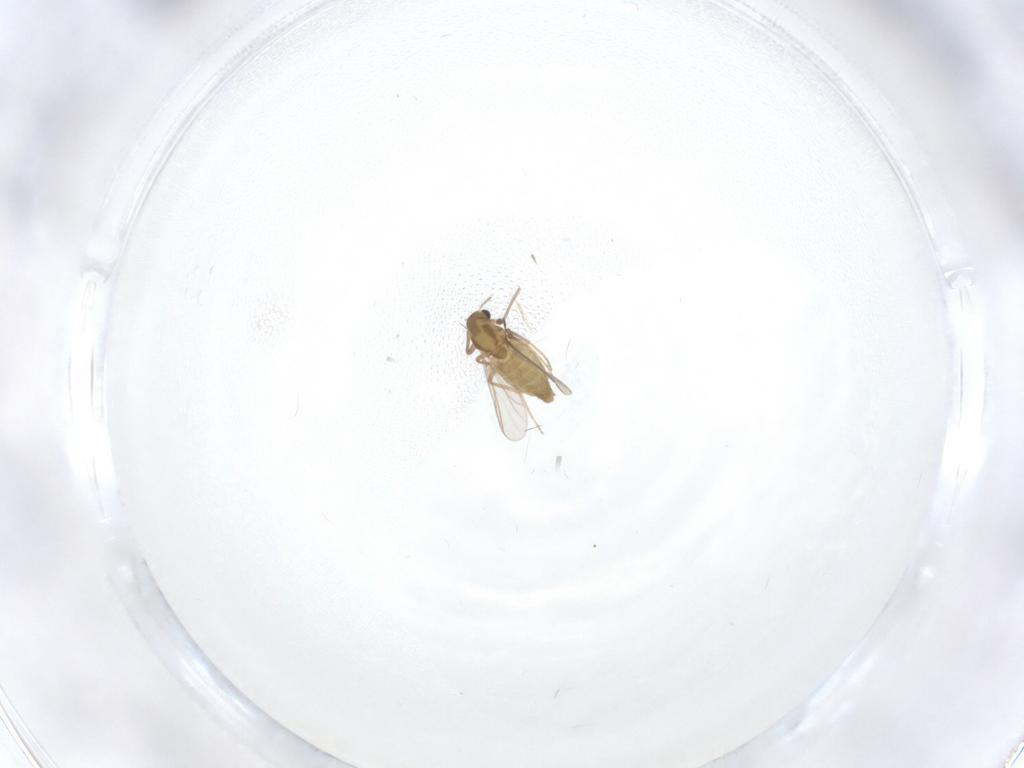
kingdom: Animalia
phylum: Arthropoda
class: Insecta
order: Diptera
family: Chironomidae
